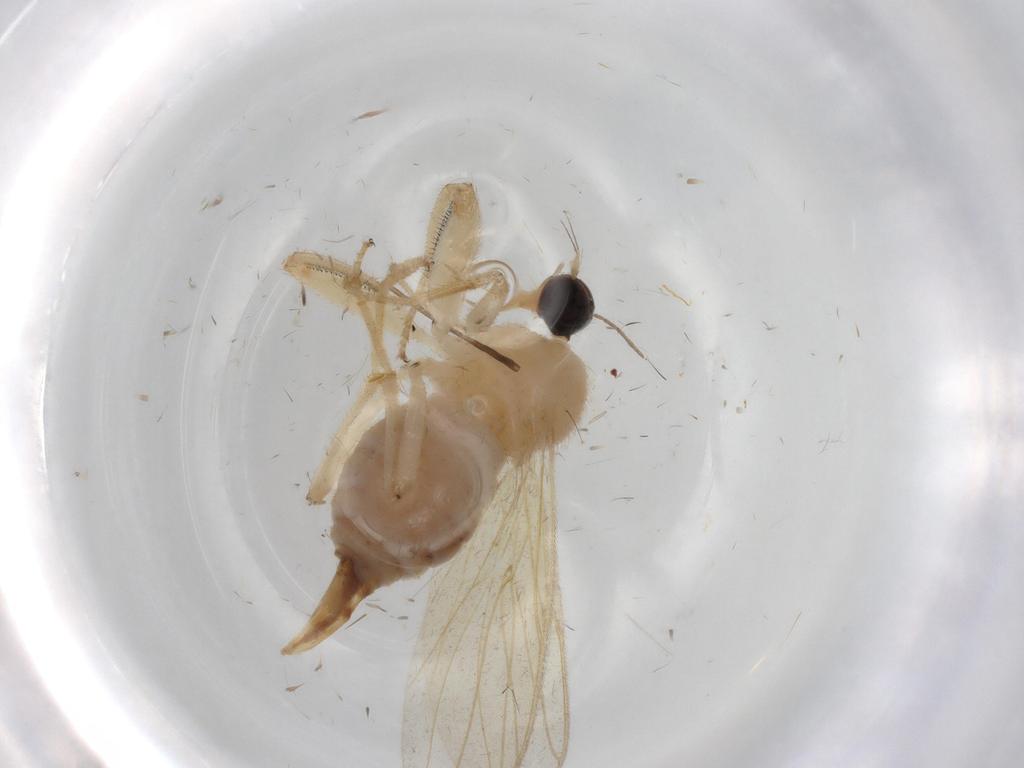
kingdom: Animalia
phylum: Arthropoda
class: Insecta
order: Diptera
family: Hybotidae
